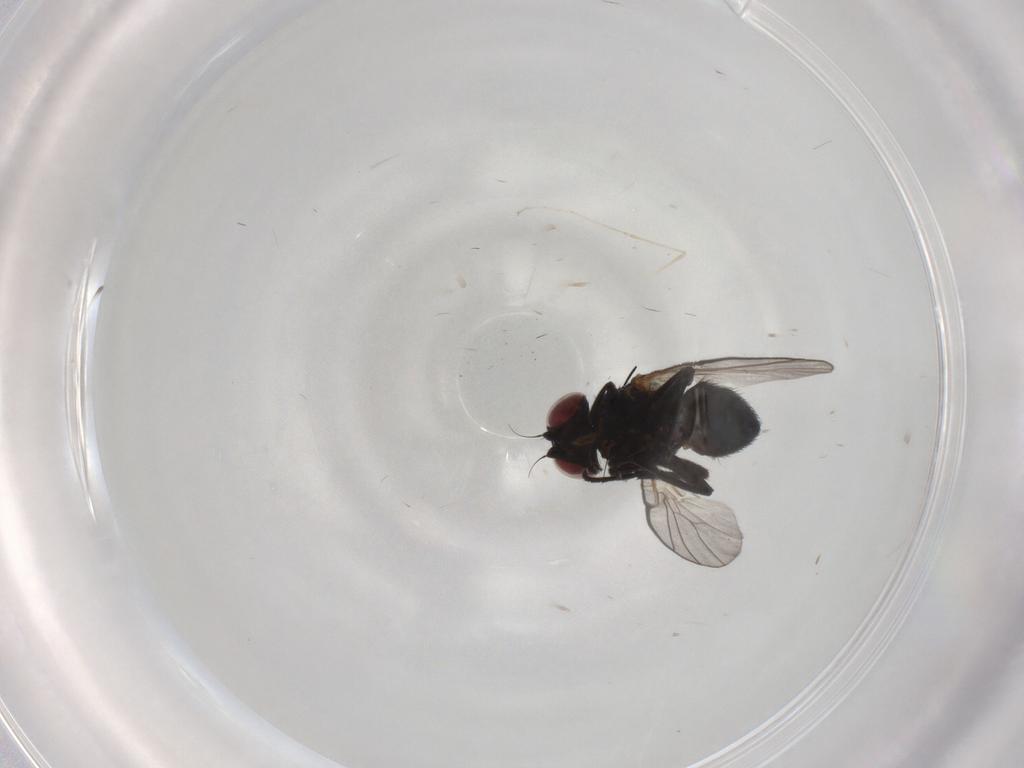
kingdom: Animalia
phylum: Arthropoda
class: Insecta
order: Diptera
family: Agromyzidae
